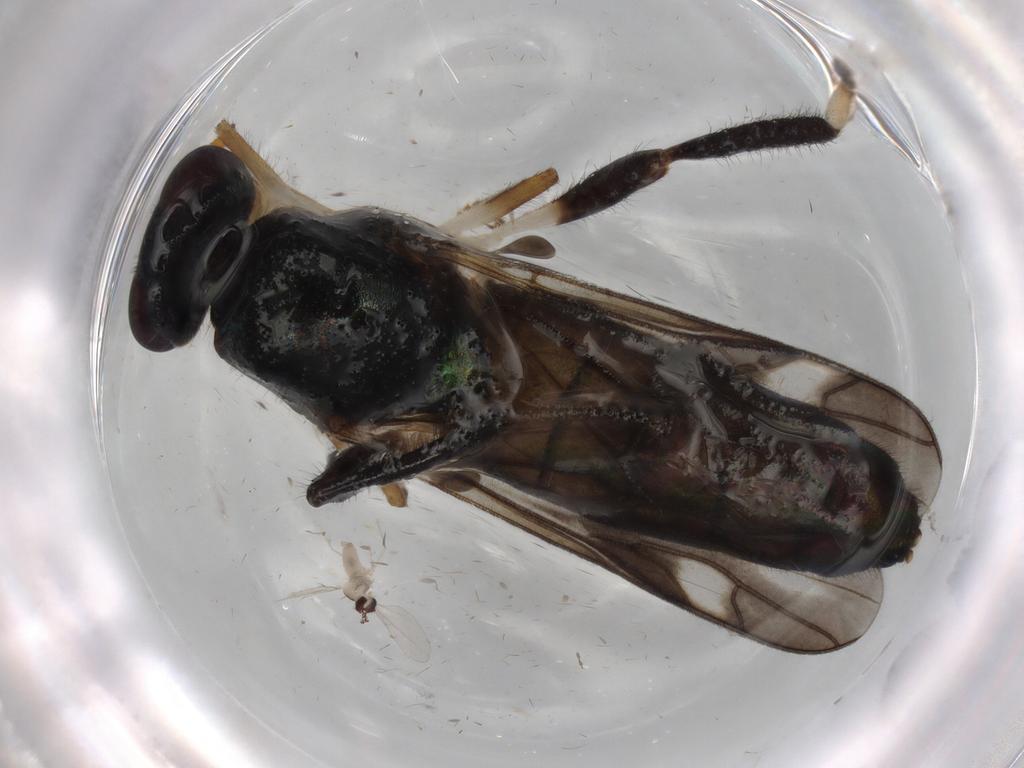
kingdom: Animalia
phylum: Arthropoda
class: Insecta
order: Diptera
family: Stratiomyidae
